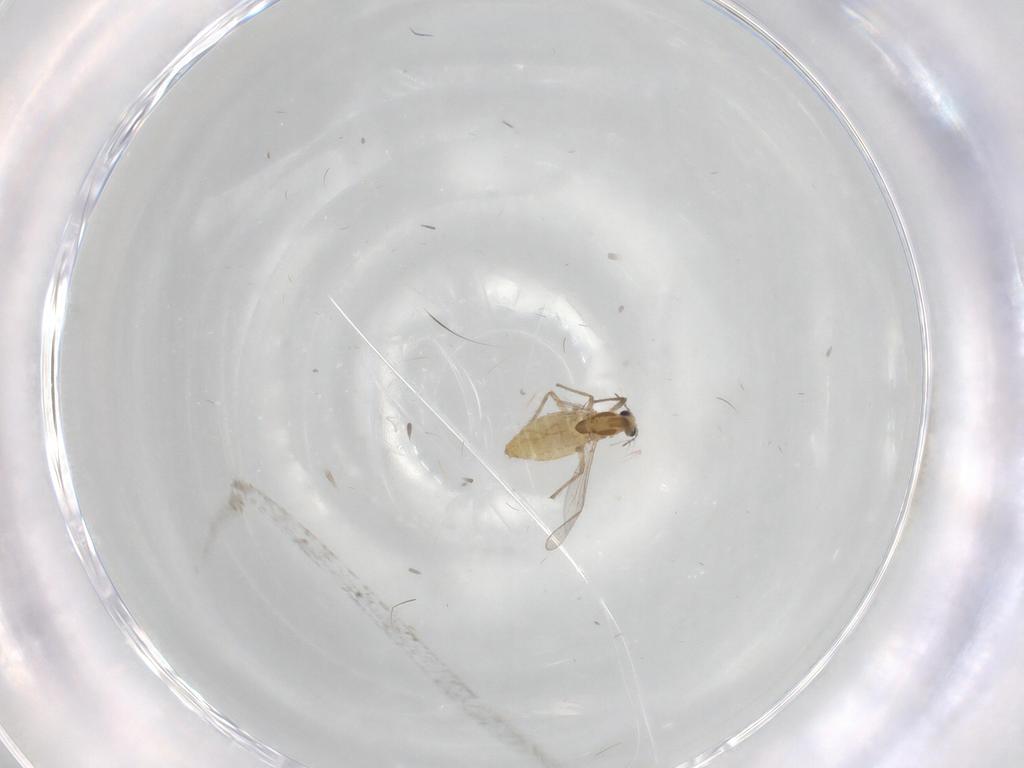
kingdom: Animalia
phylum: Arthropoda
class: Insecta
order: Diptera
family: Chironomidae
